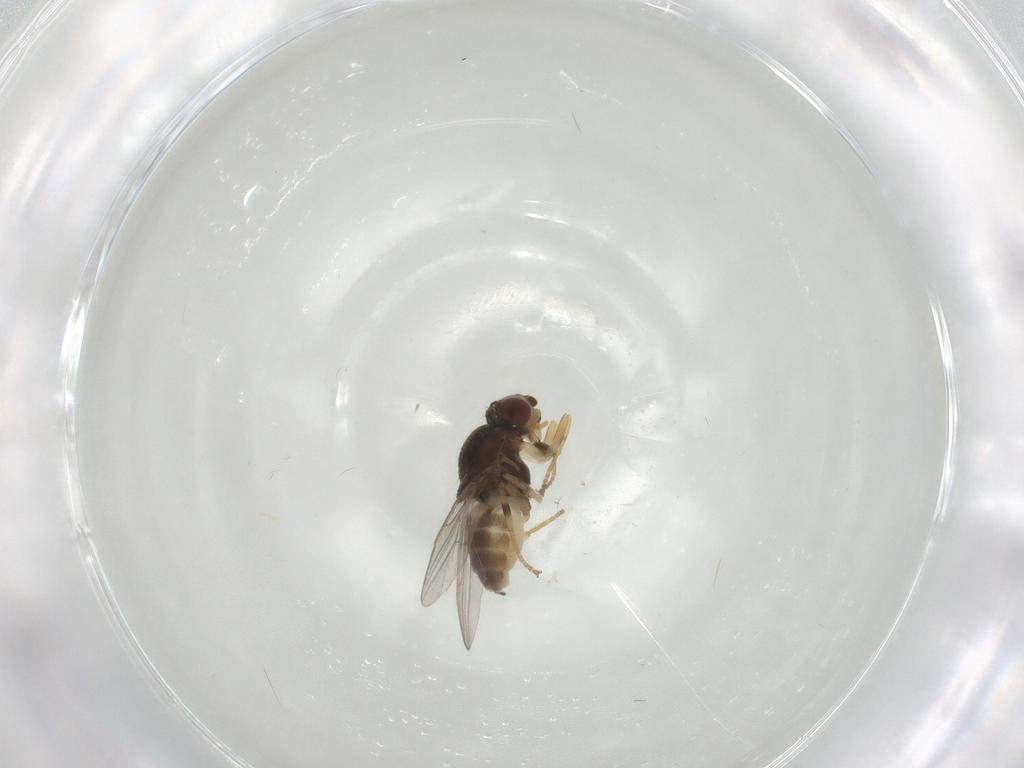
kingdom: Animalia
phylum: Arthropoda
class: Insecta
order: Diptera
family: Chloropidae
